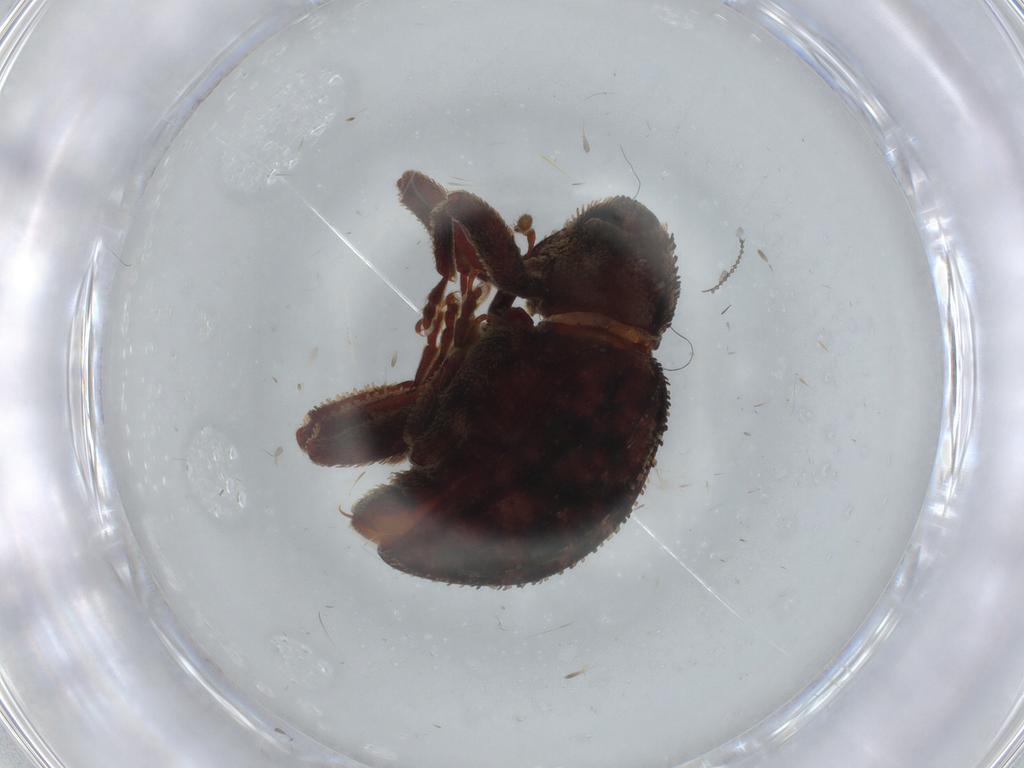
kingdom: Animalia
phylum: Arthropoda
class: Insecta
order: Coleoptera
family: Curculionidae
